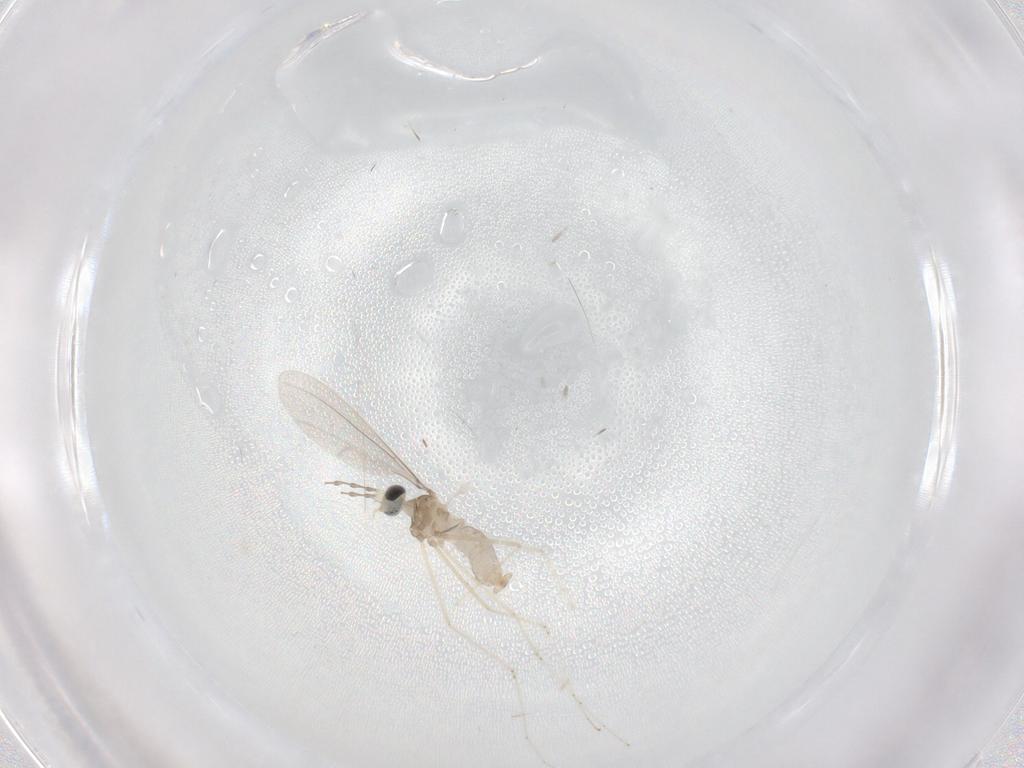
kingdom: Animalia
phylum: Arthropoda
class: Insecta
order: Diptera
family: Cecidomyiidae
